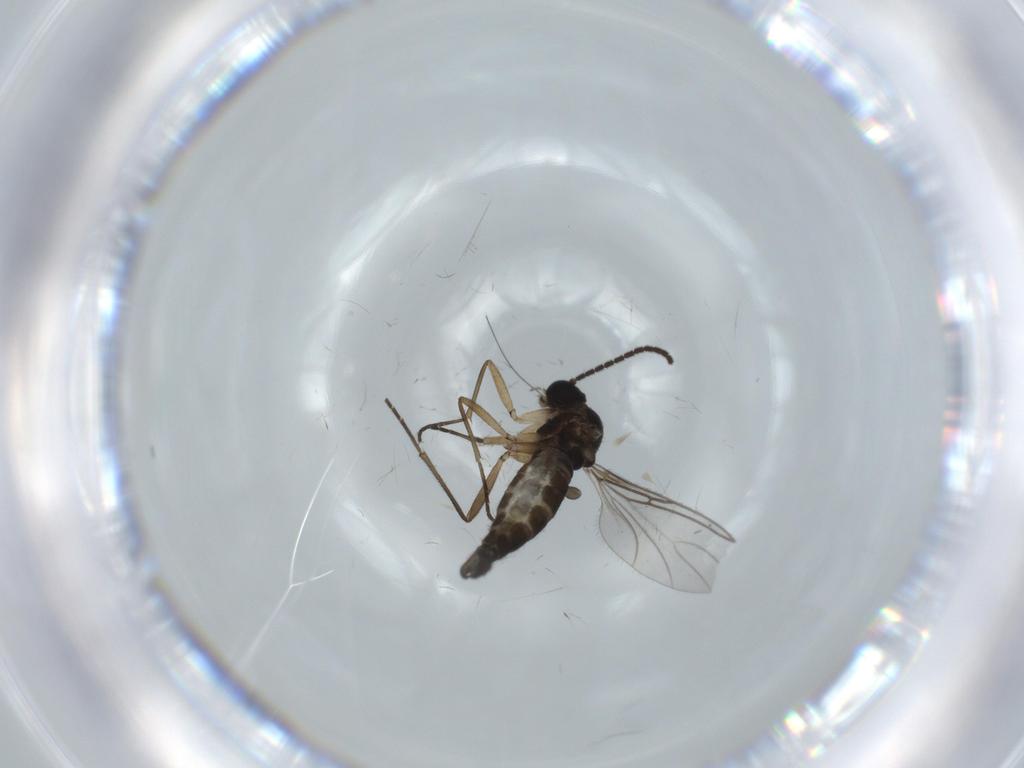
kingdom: Animalia
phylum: Arthropoda
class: Insecta
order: Diptera
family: Sciaridae
